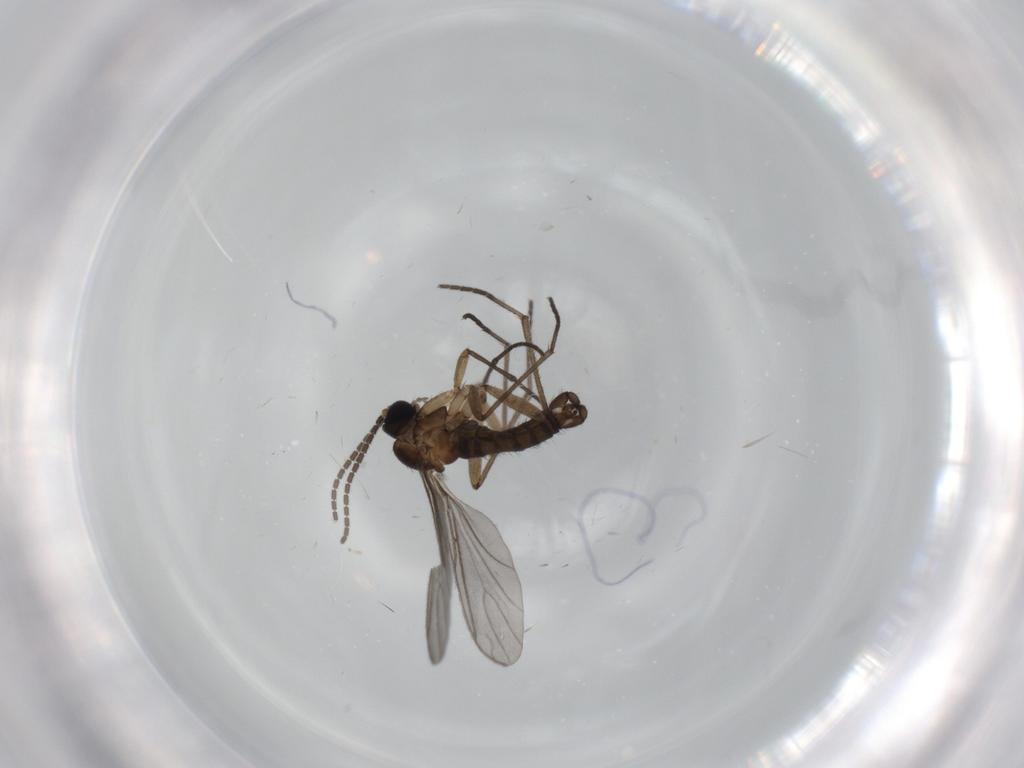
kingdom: Animalia
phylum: Arthropoda
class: Insecta
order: Diptera
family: Sciaridae
